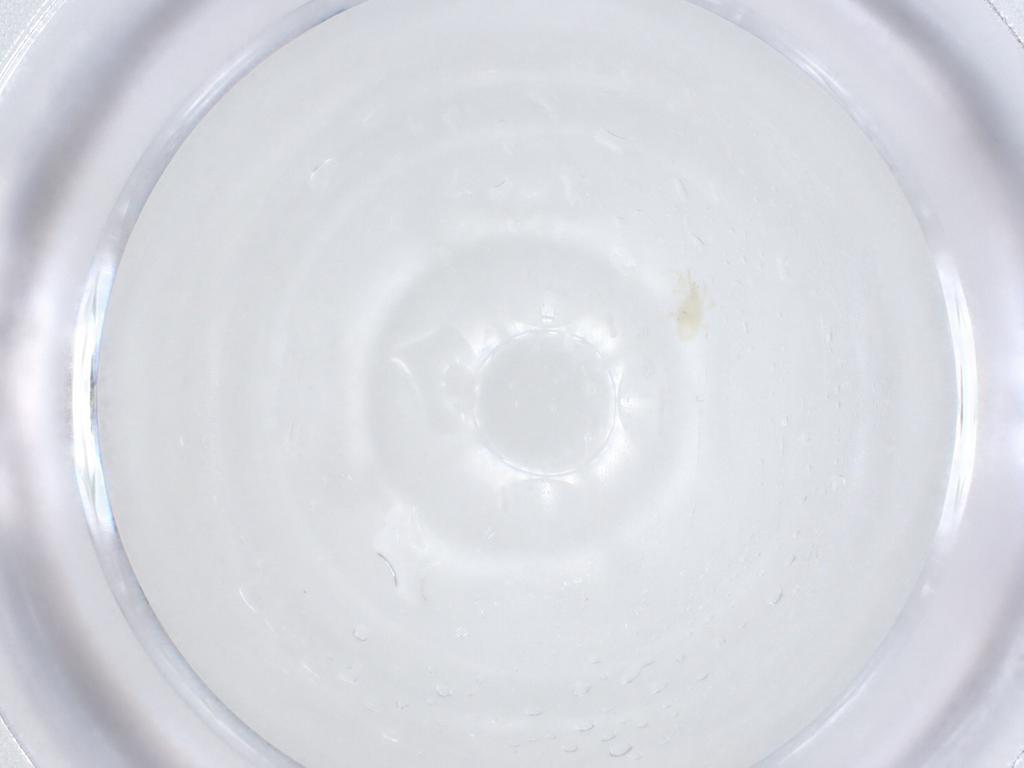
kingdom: Animalia
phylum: Arthropoda
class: Arachnida
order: Mesostigmata
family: Phytoseiidae
